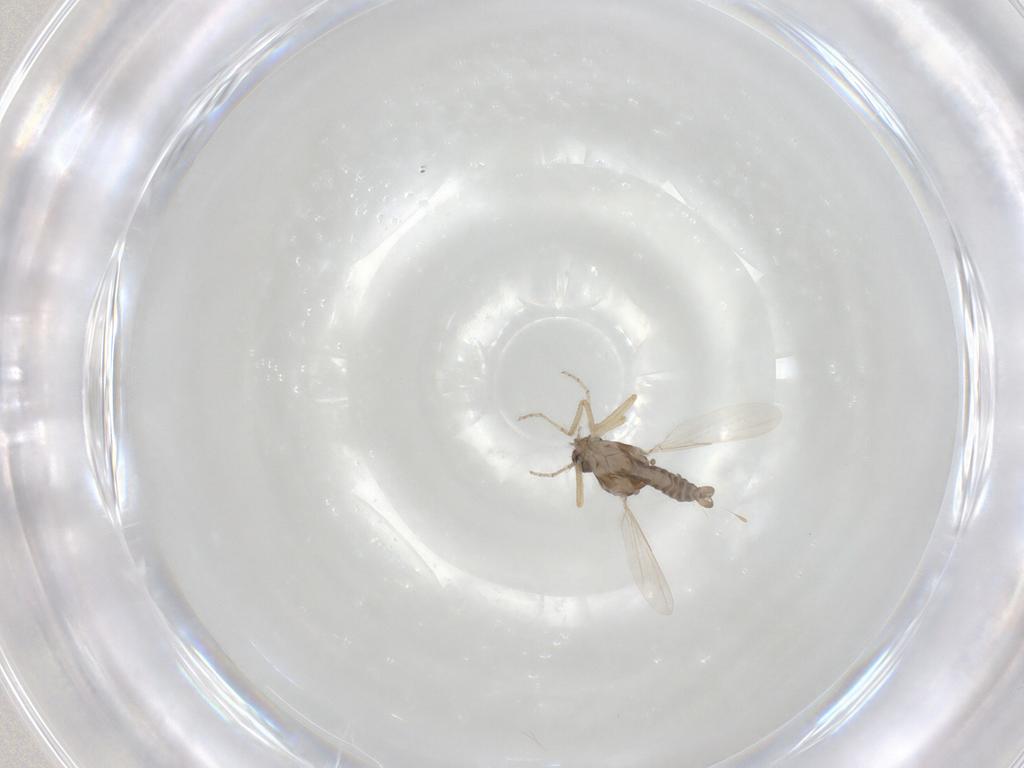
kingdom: Animalia
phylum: Arthropoda
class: Insecta
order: Diptera
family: Ceratopogonidae
